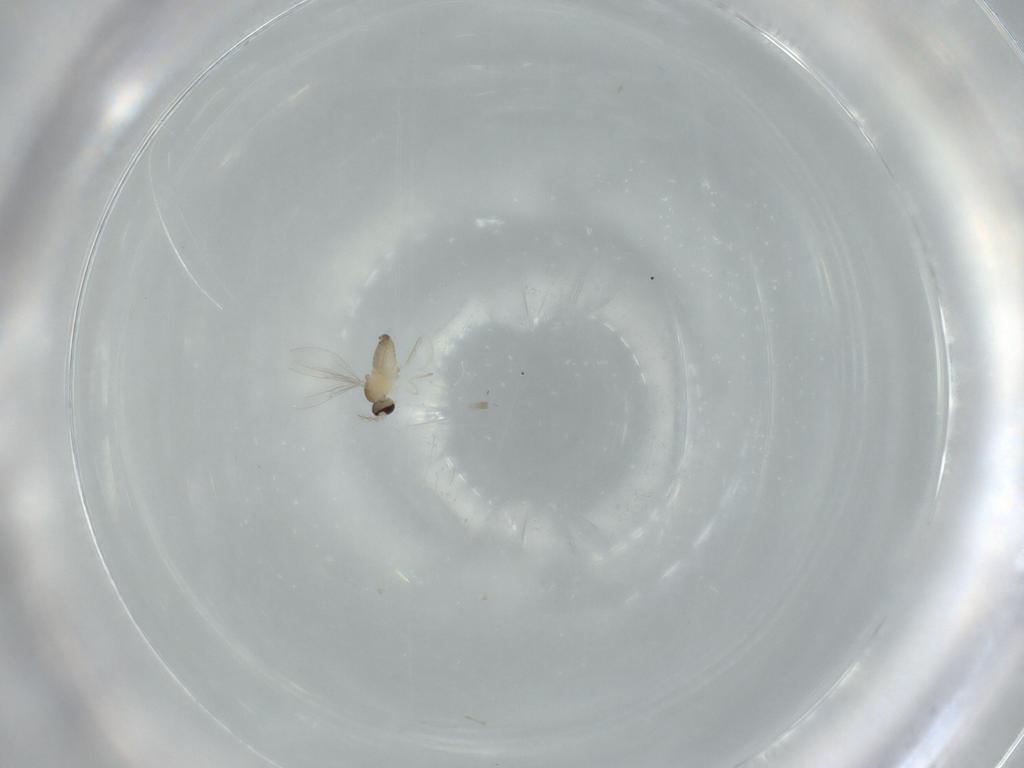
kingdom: Animalia
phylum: Arthropoda
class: Insecta
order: Diptera
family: Cecidomyiidae
